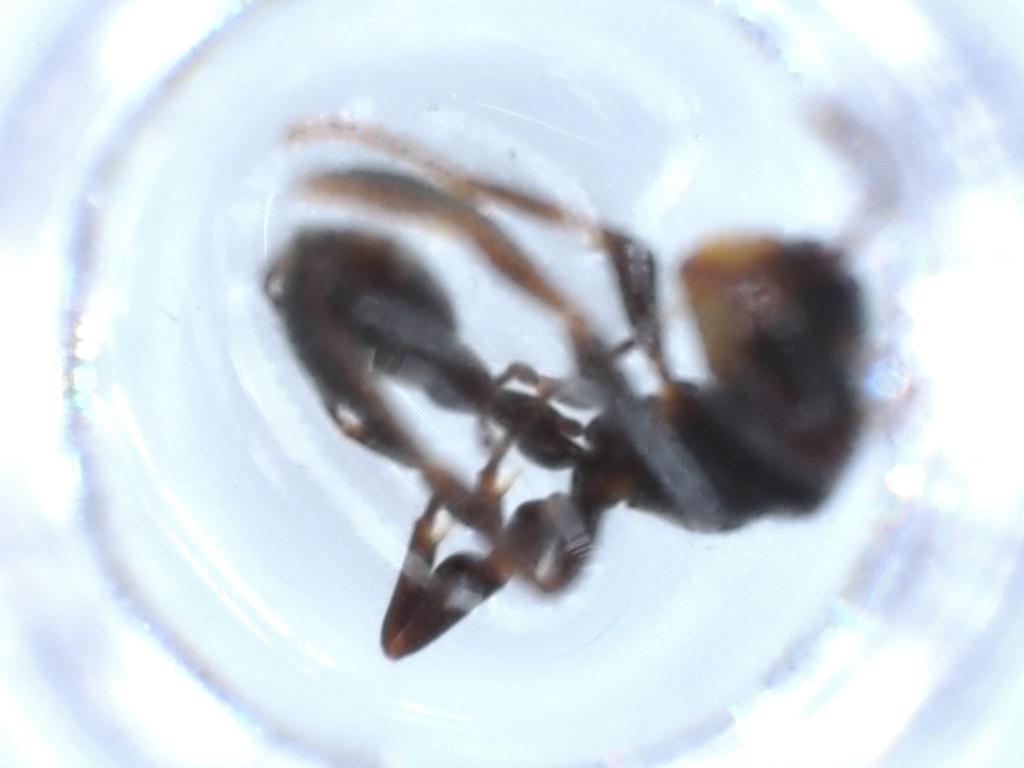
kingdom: Animalia
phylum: Arthropoda
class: Insecta
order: Hymenoptera
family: Formicidae
